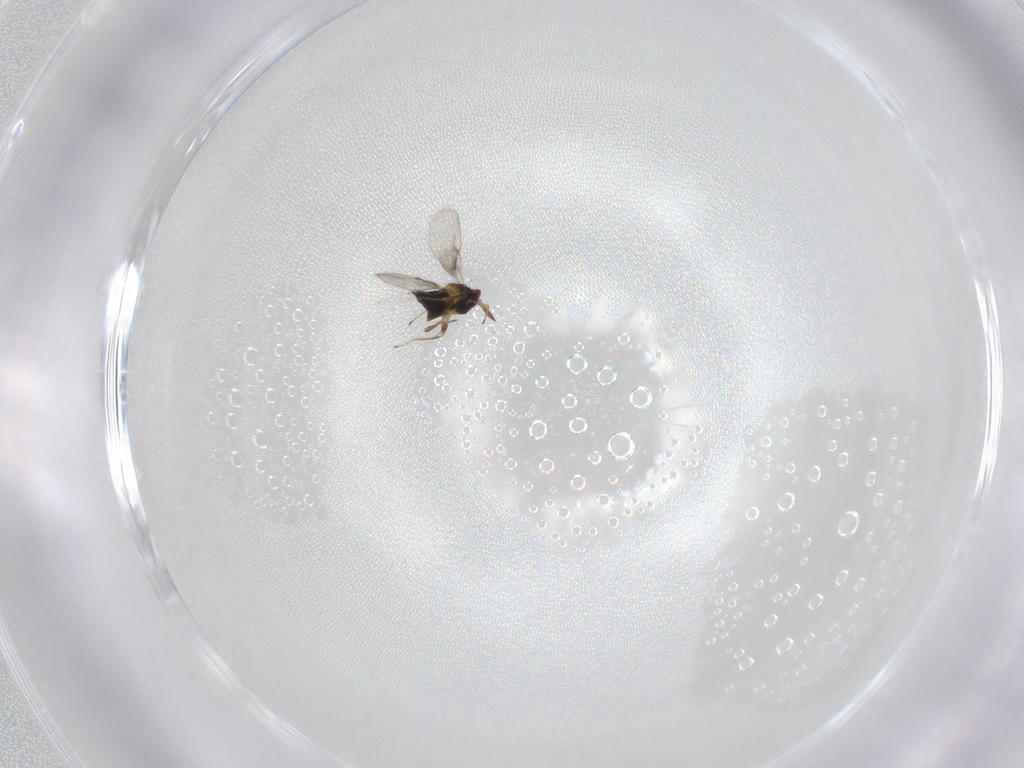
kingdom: Animalia
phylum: Arthropoda
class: Insecta
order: Hymenoptera
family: Trichogrammatidae
